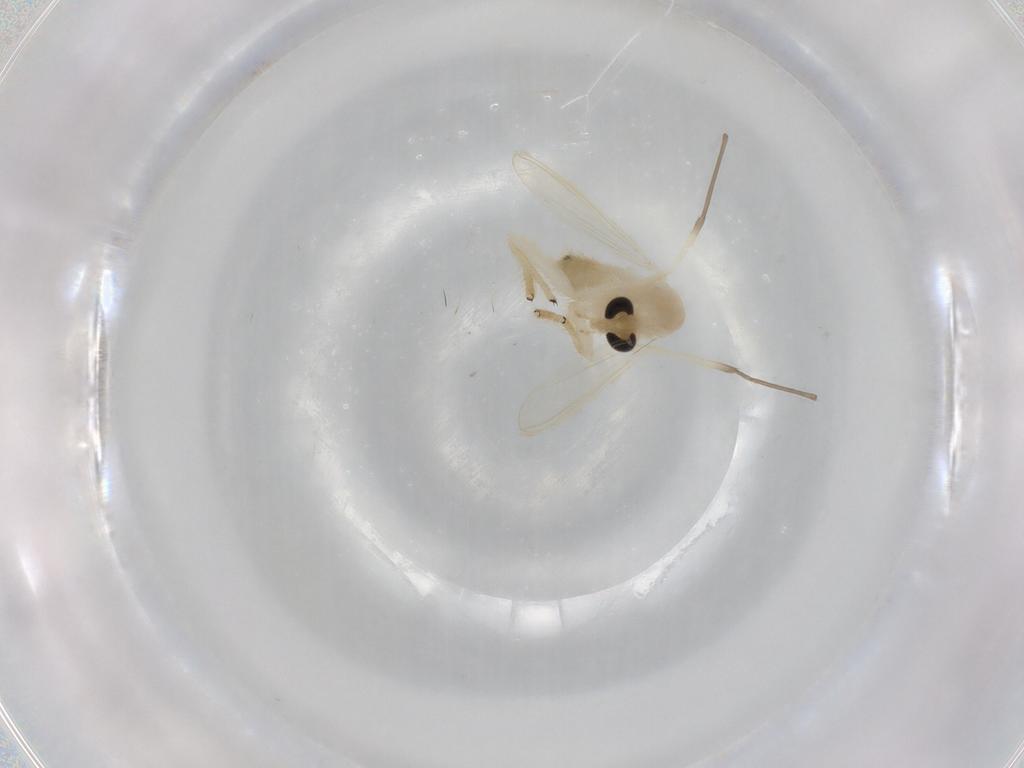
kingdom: Animalia
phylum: Arthropoda
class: Insecta
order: Diptera
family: Chironomidae
